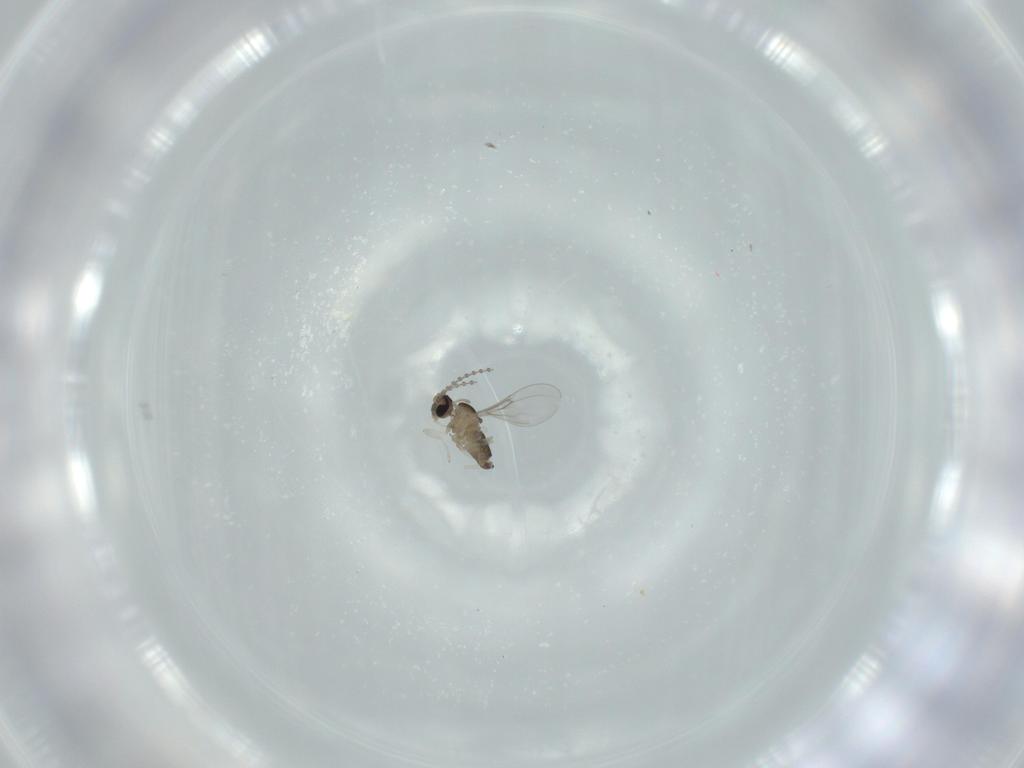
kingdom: Animalia
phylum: Arthropoda
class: Insecta
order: Diptera
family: Cecidomyiidae
